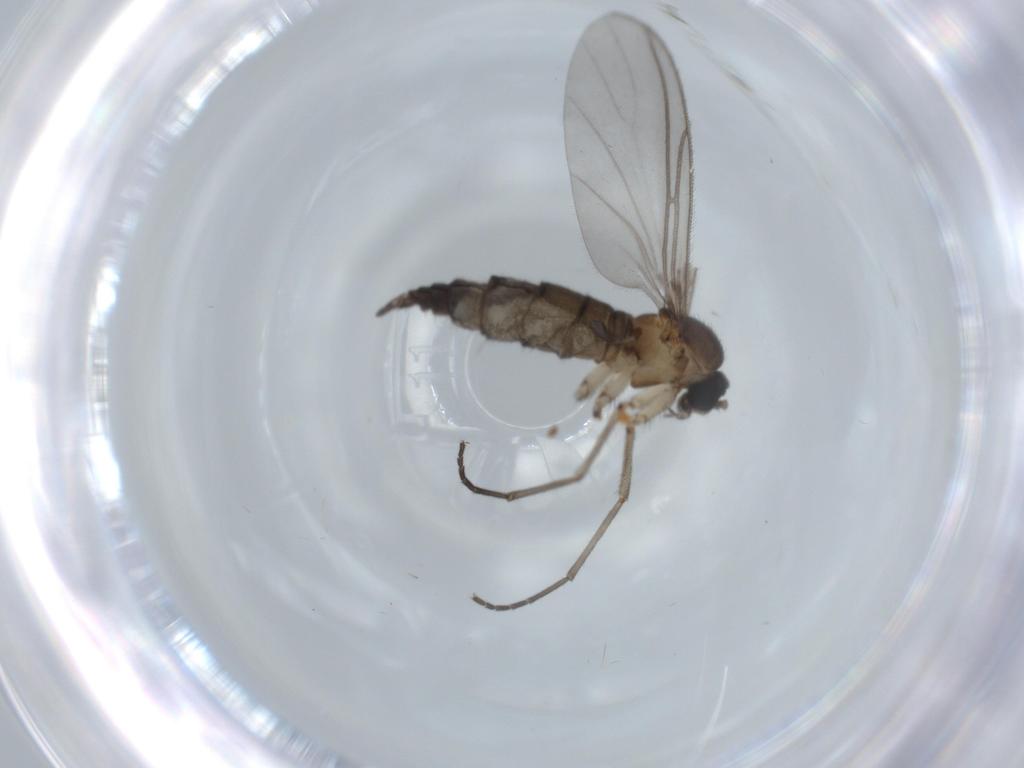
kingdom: Animalia
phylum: Arthropoda
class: Insecta
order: Diptera
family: Sciaridae
